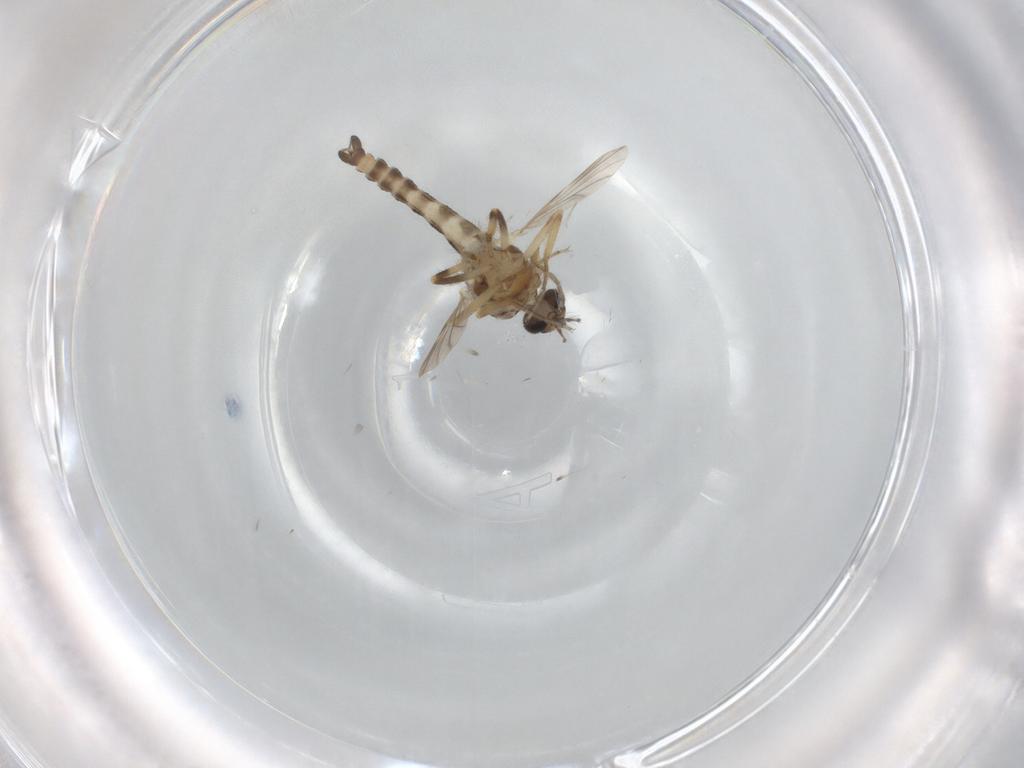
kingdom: Animalia
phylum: Arthropoda
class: Insecta
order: Diptera
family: Ceratopogonidae
